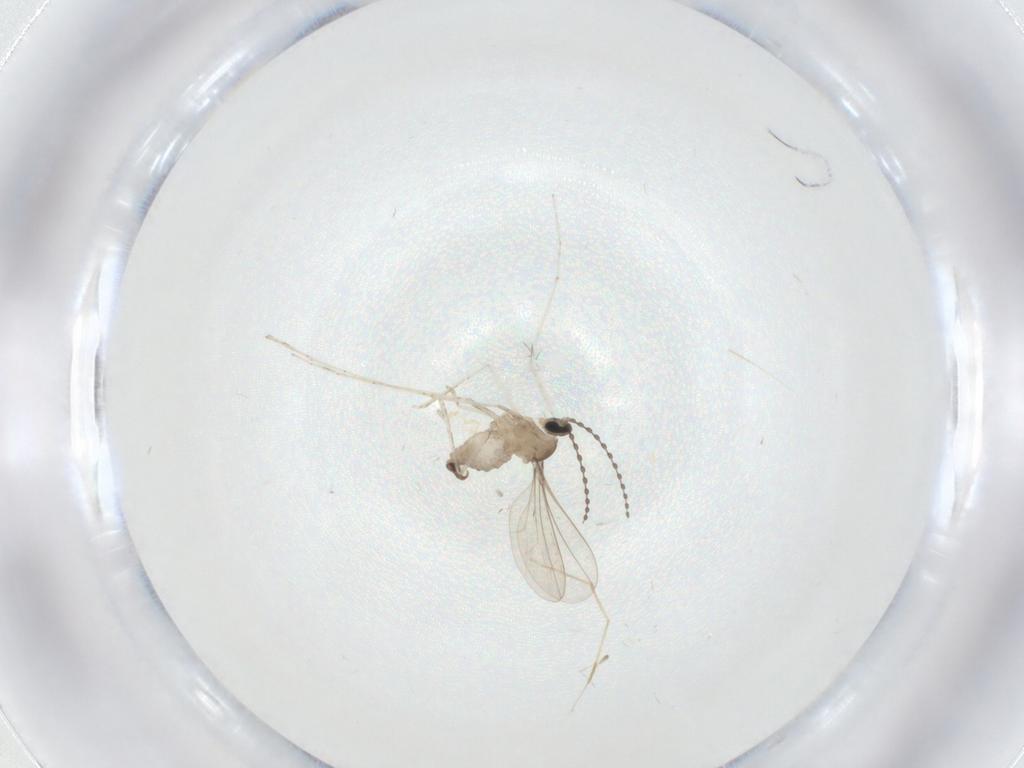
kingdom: Animalia
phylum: Arthropoda
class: Insecta
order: Diptera
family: Cecidomyiidae
